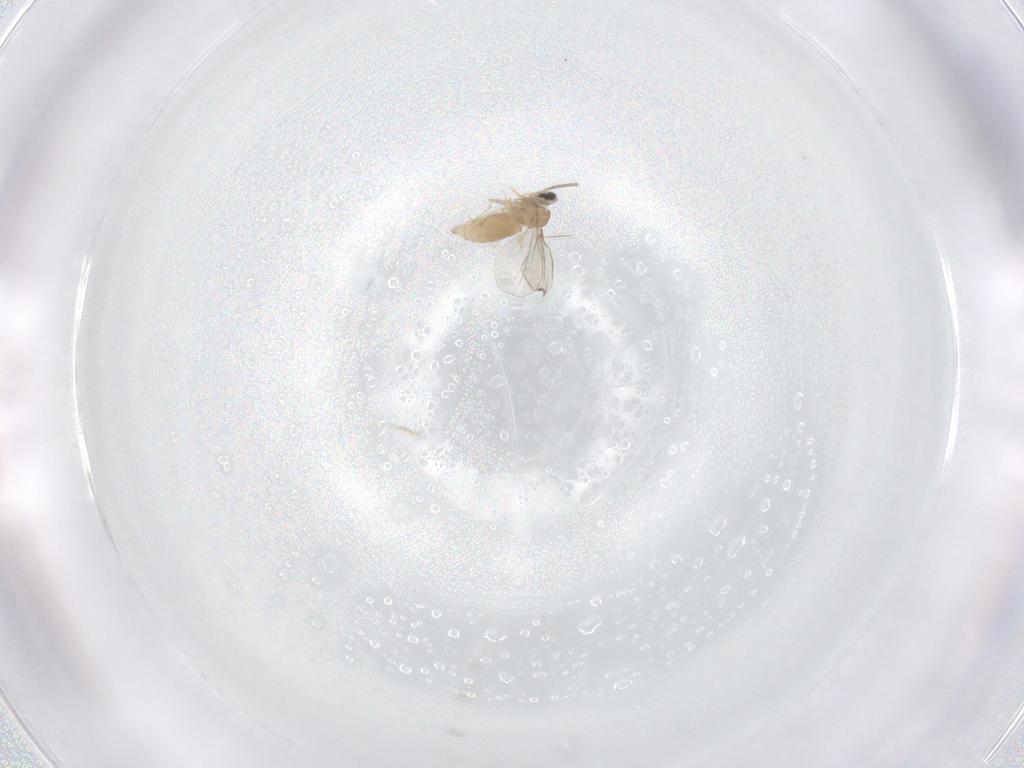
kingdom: Animalia
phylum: Arthropoda
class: Insecta
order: Diptera
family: Cecidomyiidae
